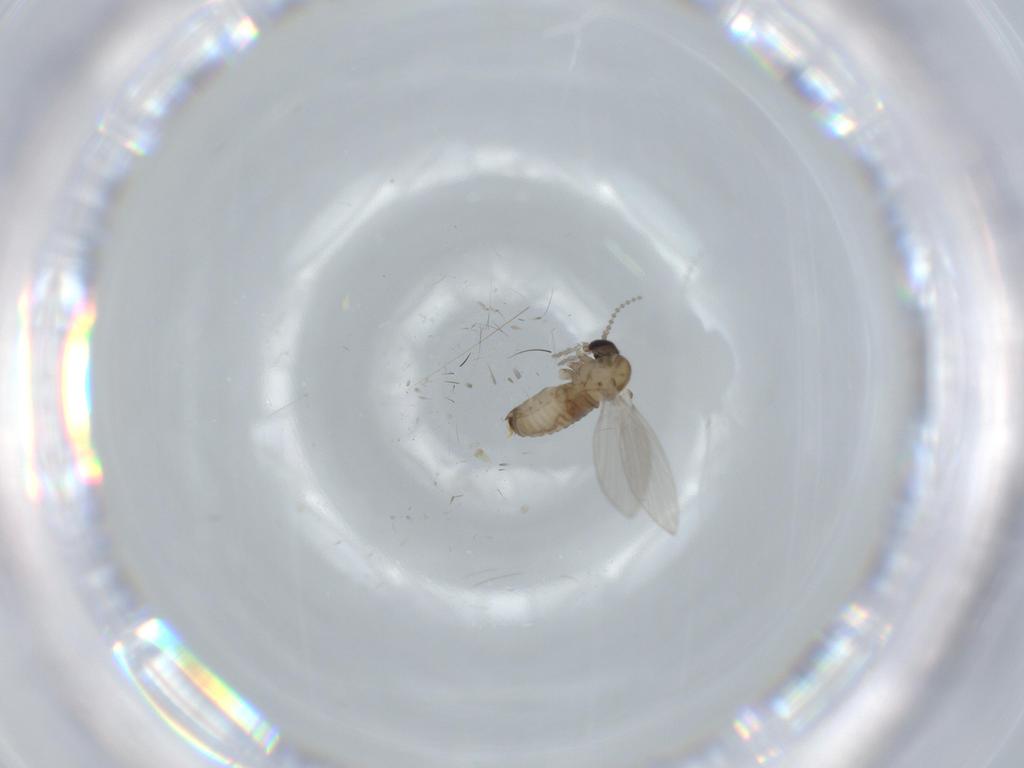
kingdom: Animalia
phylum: Arthropoda
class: Insecta
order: Diptera
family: Psychodidae
